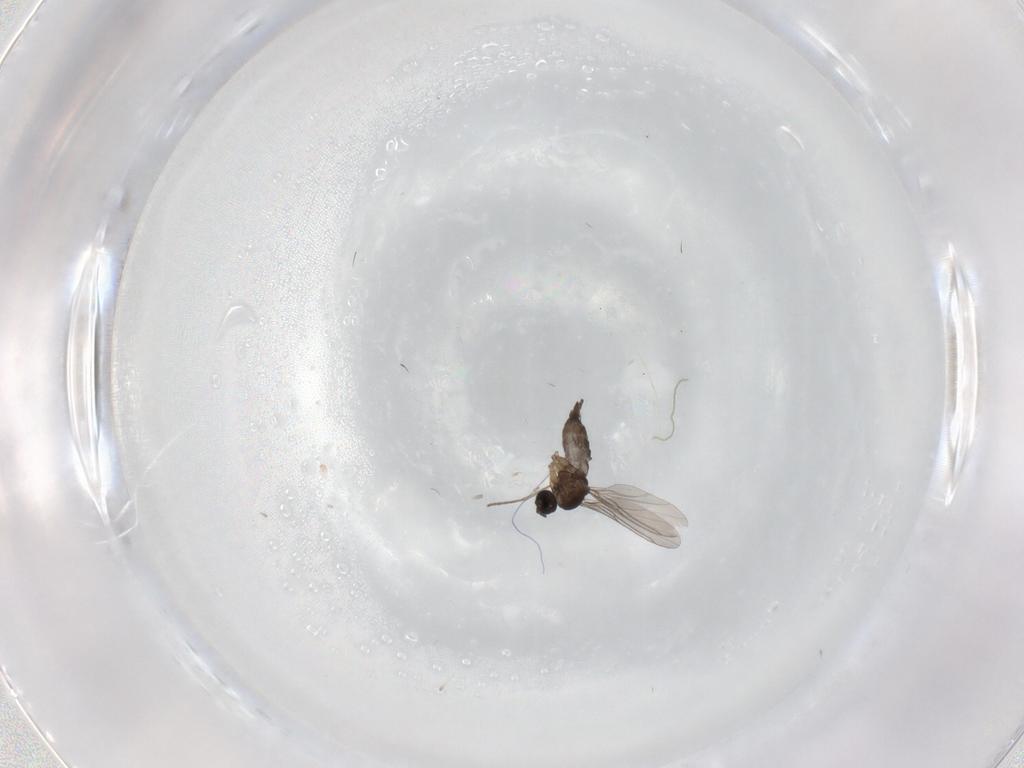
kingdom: Animalia
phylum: Arthropoda
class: Insecta
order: Diptera
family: Sciaridae
